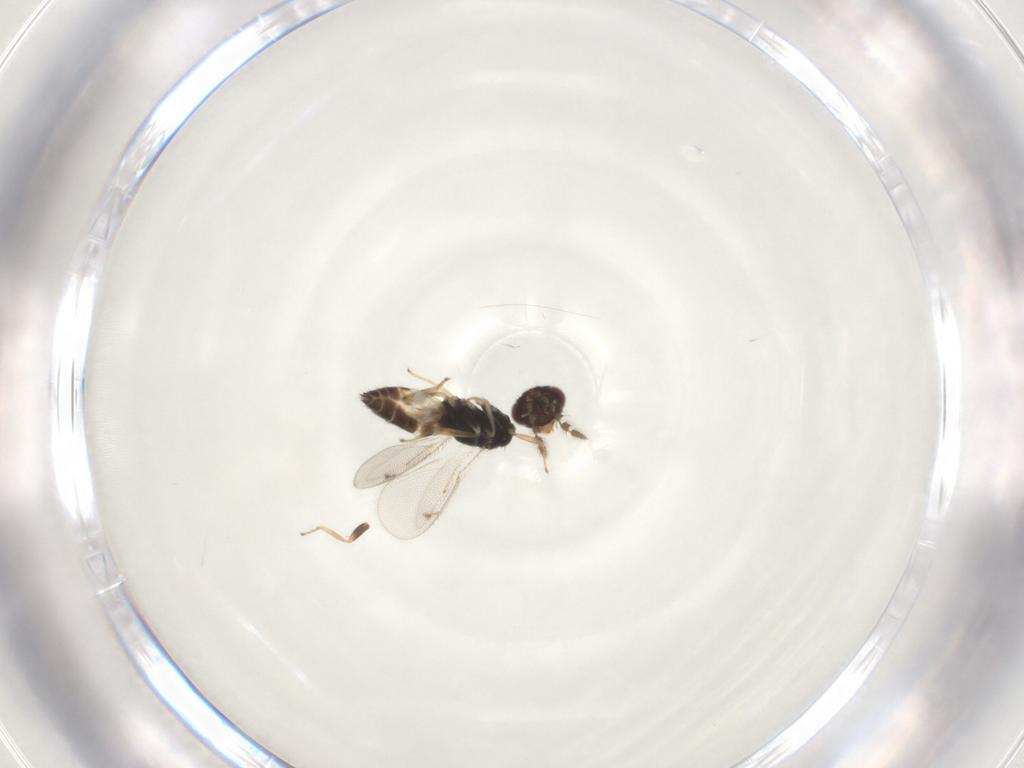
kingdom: Animalia
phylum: Arthropoda
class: Insecta
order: Hymenoptera
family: Eulophidae
